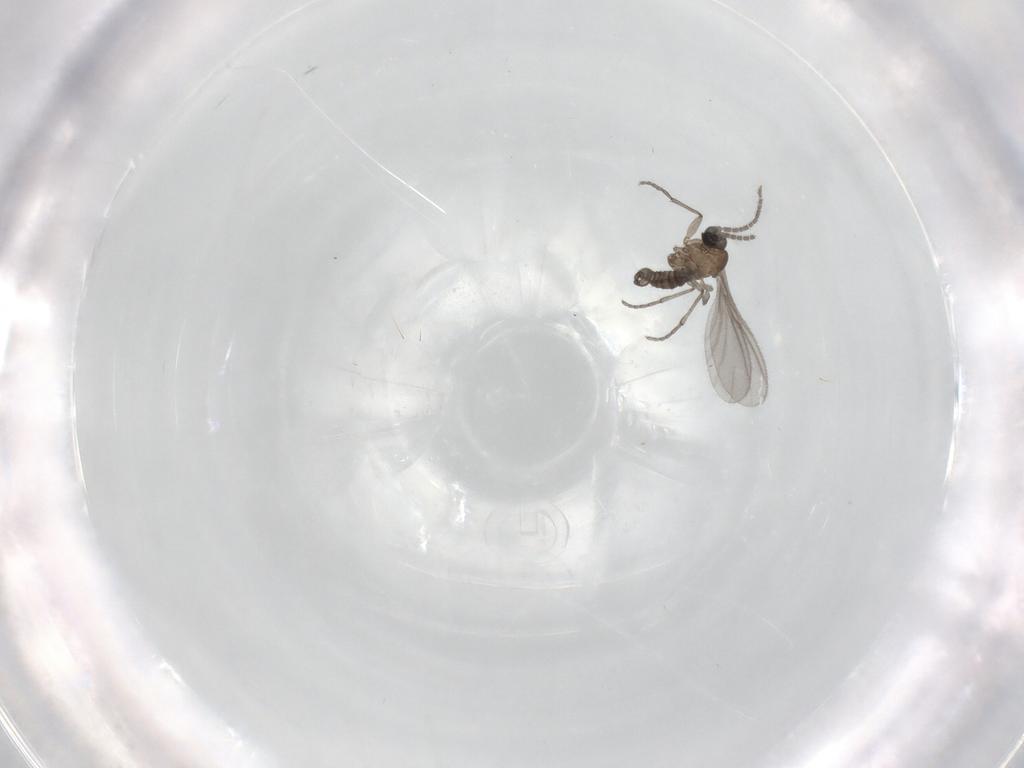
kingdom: Animalia
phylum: Arthropoda
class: Insecta
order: Diptera
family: Sciaridae
